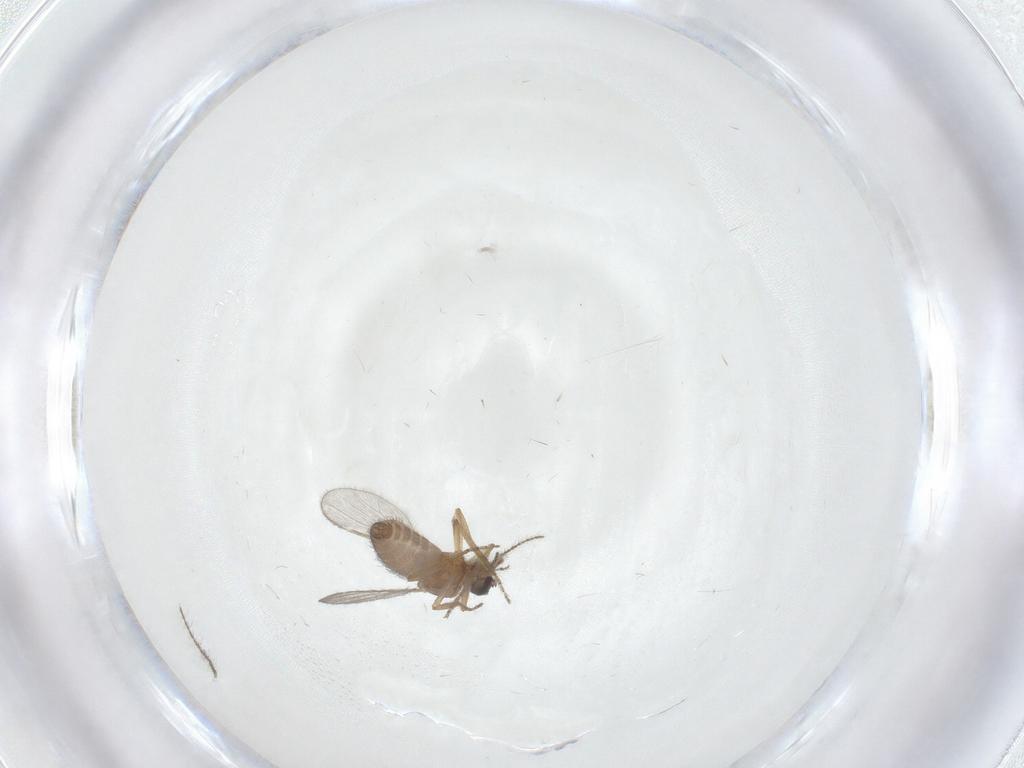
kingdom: Animalia
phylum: Arthropoda
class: Insecta
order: Diptera
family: Ceratopogonidae
